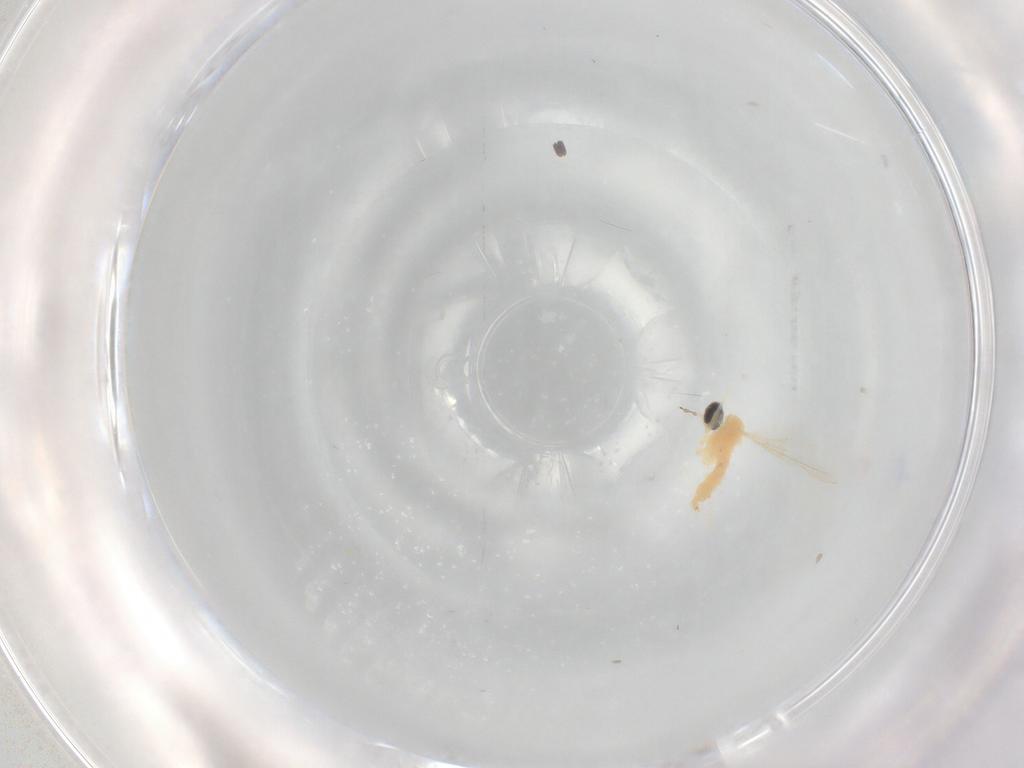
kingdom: Animalia
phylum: Arthropoda
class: Insecta
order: Diptera
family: Cecidomyiidae
